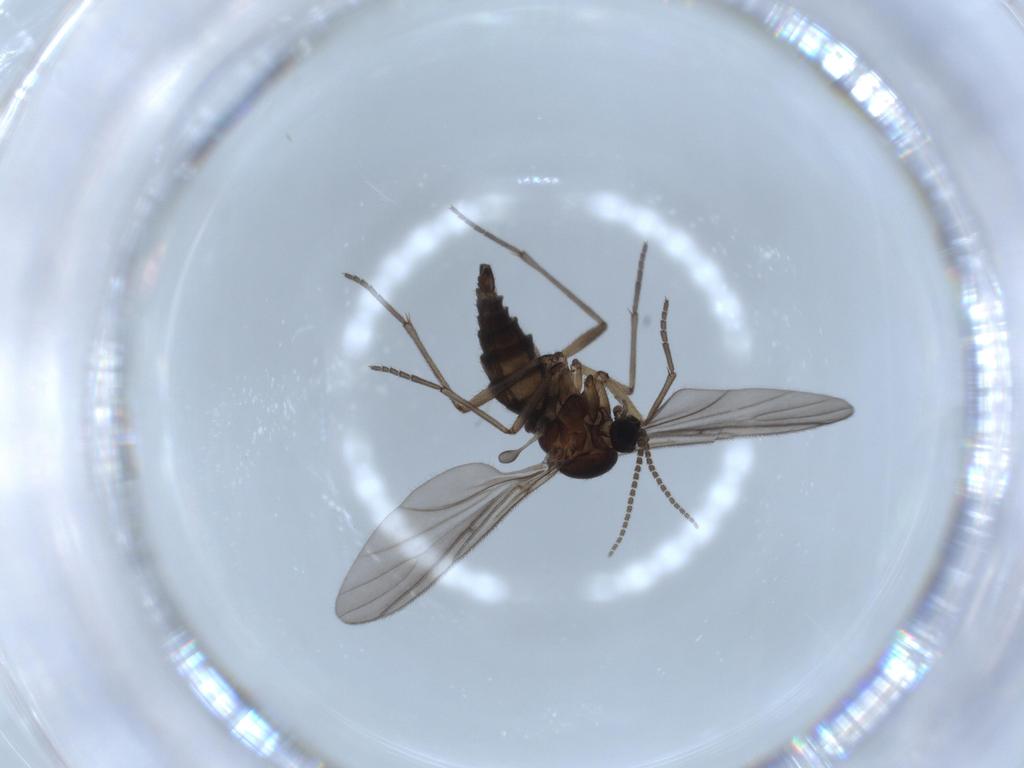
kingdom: Animalia
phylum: Arthropoda
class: Insecta
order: Diptera
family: Sciaridae
